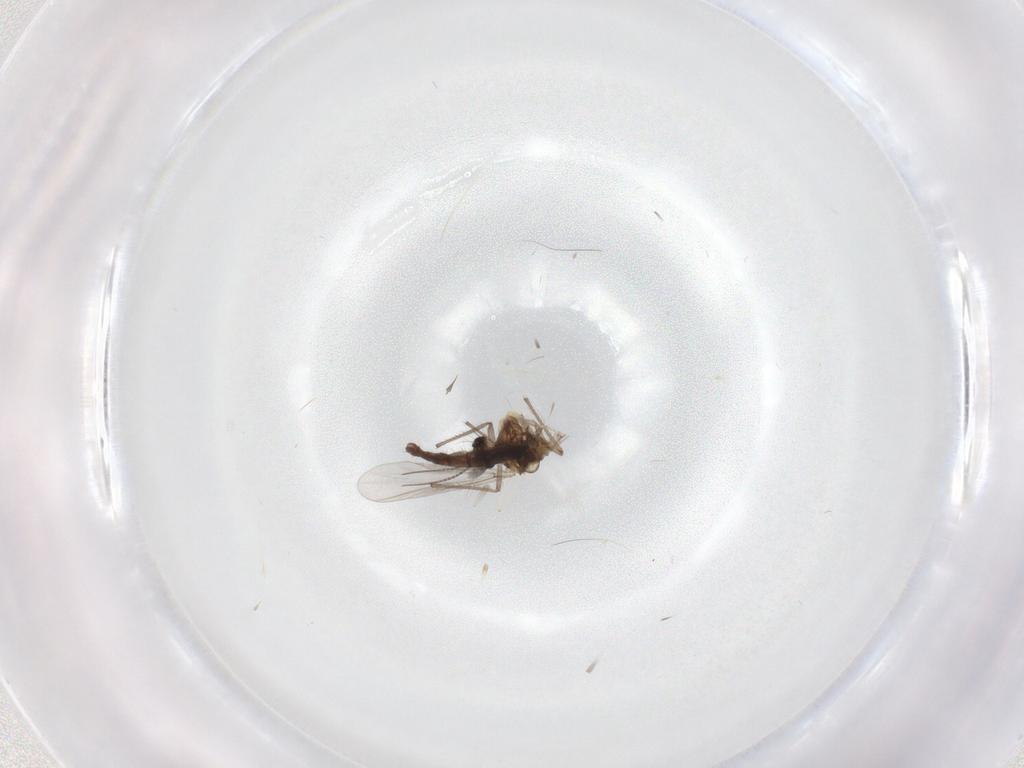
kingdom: Animalia
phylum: Arthropoda
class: Insecta
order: Diptera
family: Chironomidae
